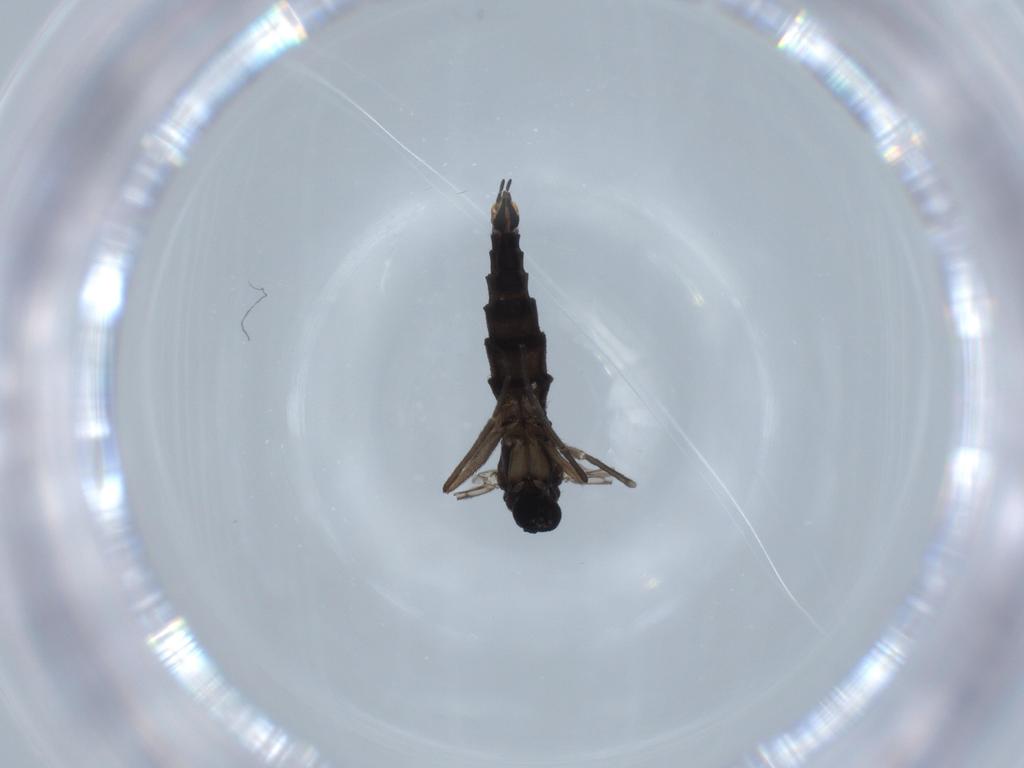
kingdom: Animalia
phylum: Arthropoda
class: Insecta
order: Diptera
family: Sciaridae
